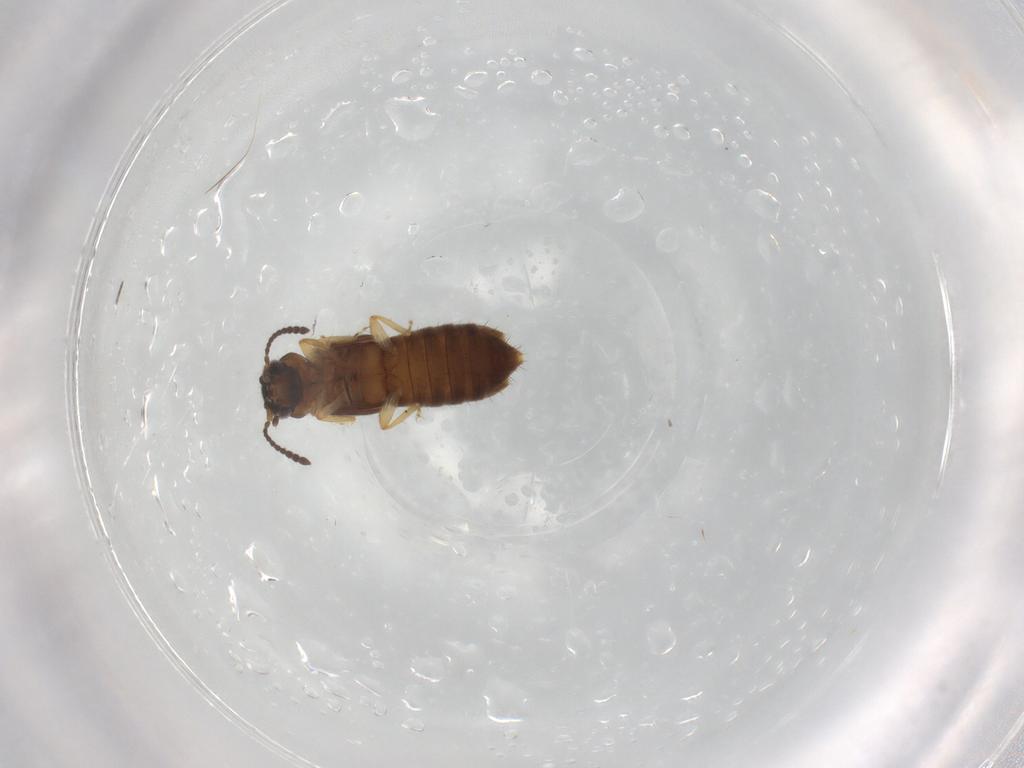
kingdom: Animalia
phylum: Arthropoda
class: Insecta
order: Coleoptera
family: Staphylinidae
